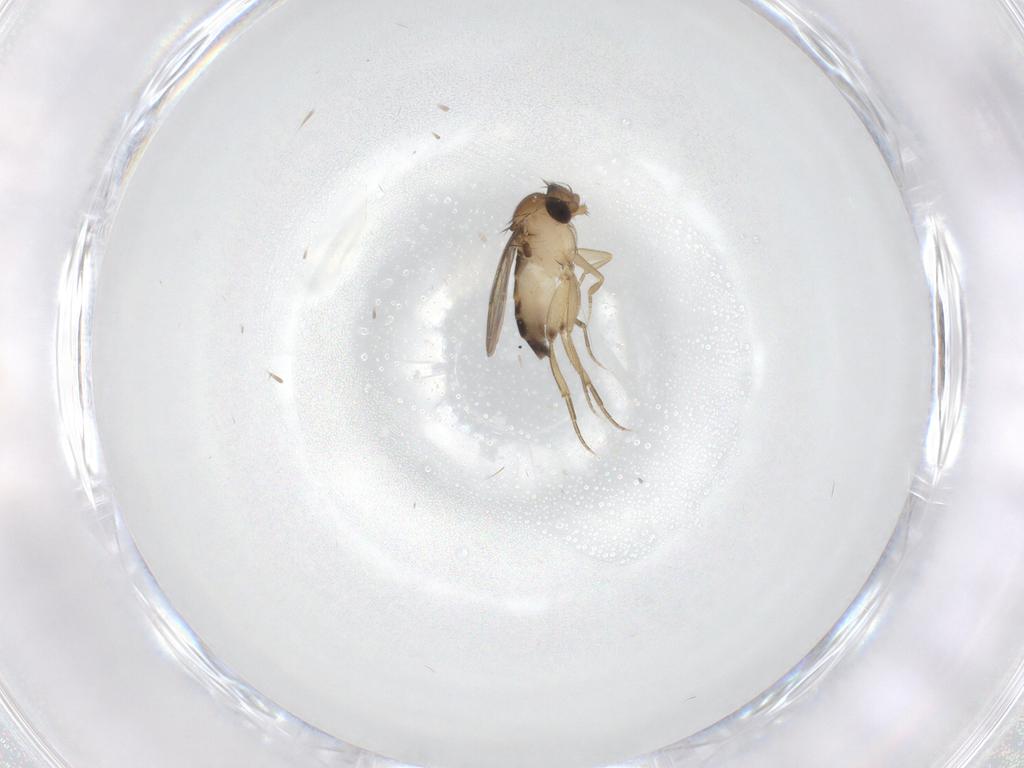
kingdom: Animalia
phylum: Arthropoda
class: Insecta
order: Diptera
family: Phoridae
